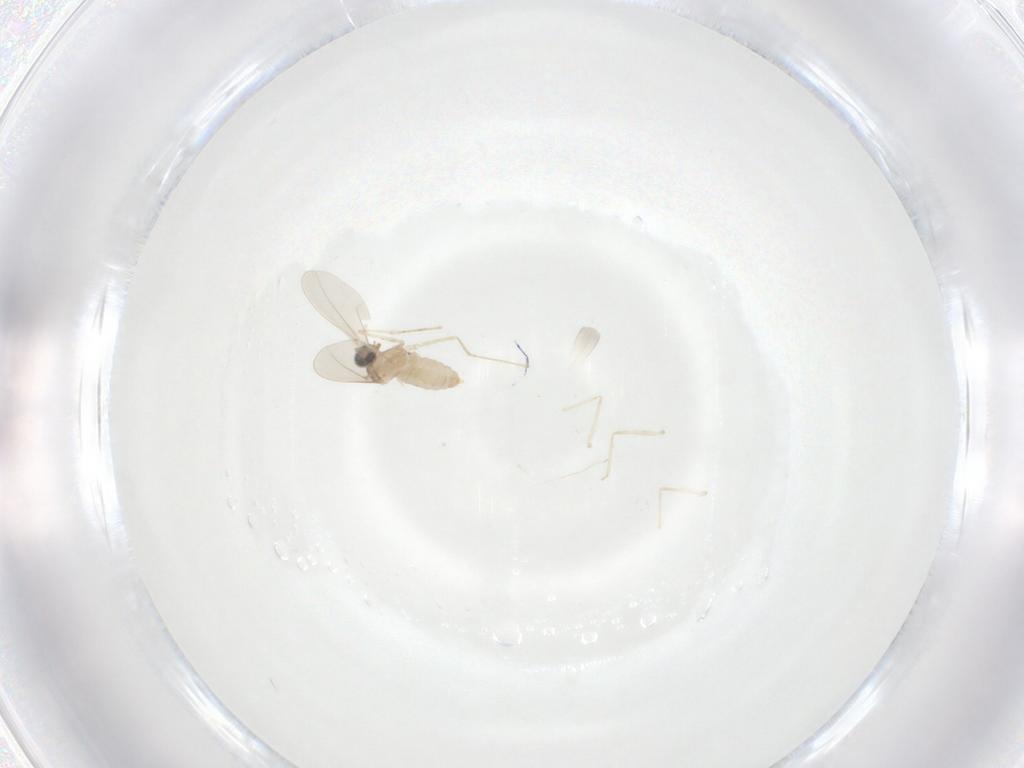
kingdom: Animalia
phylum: Arthropoda
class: Insecta
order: Diptera
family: Cecidomyiidae
